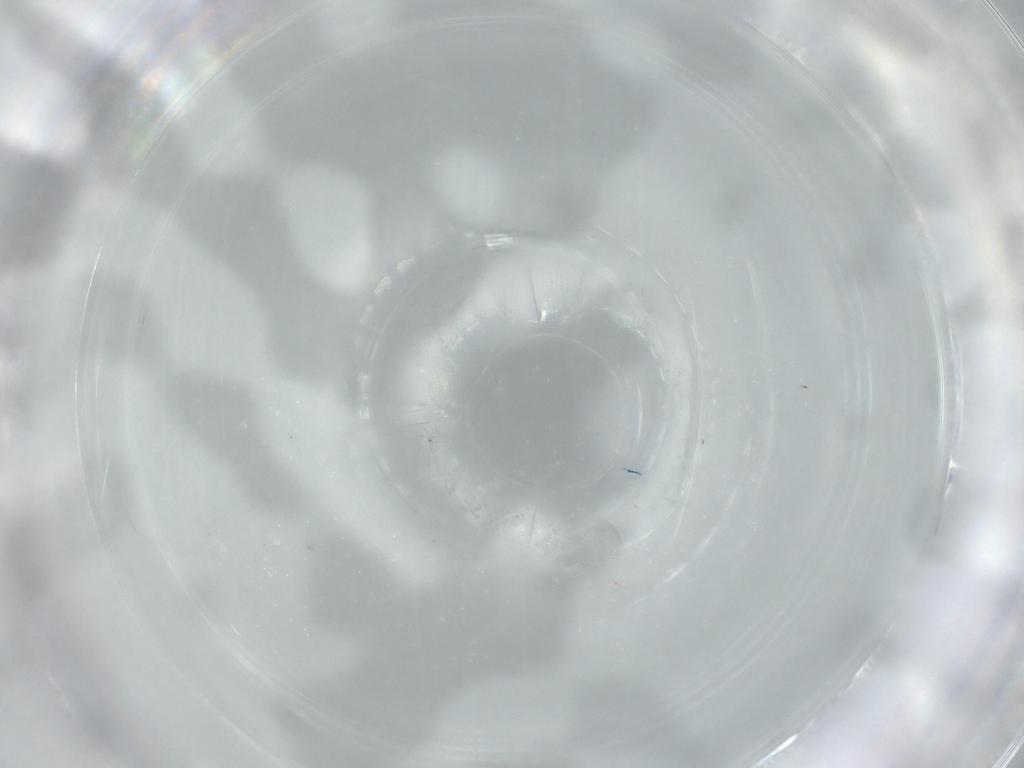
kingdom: Animalia
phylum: Arthropoda
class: Insecta
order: Diptera
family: Chloropidae
